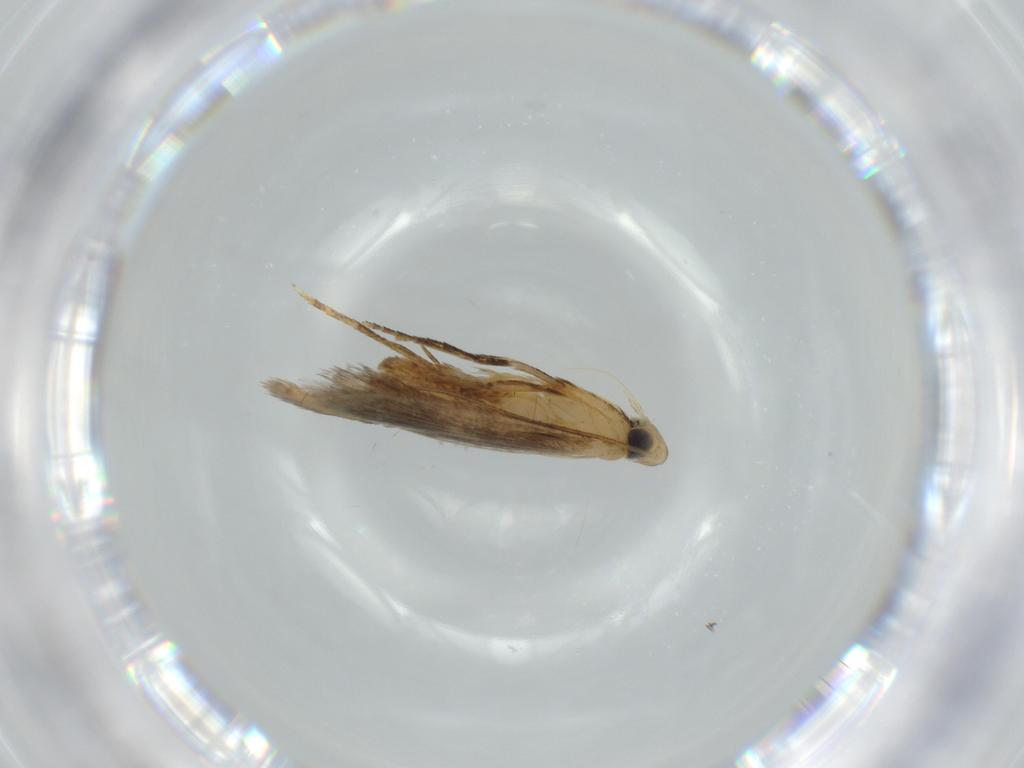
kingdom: Animalia
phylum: Arthropoda
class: Insecta
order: Lepidoptera
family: Tischeriidae
